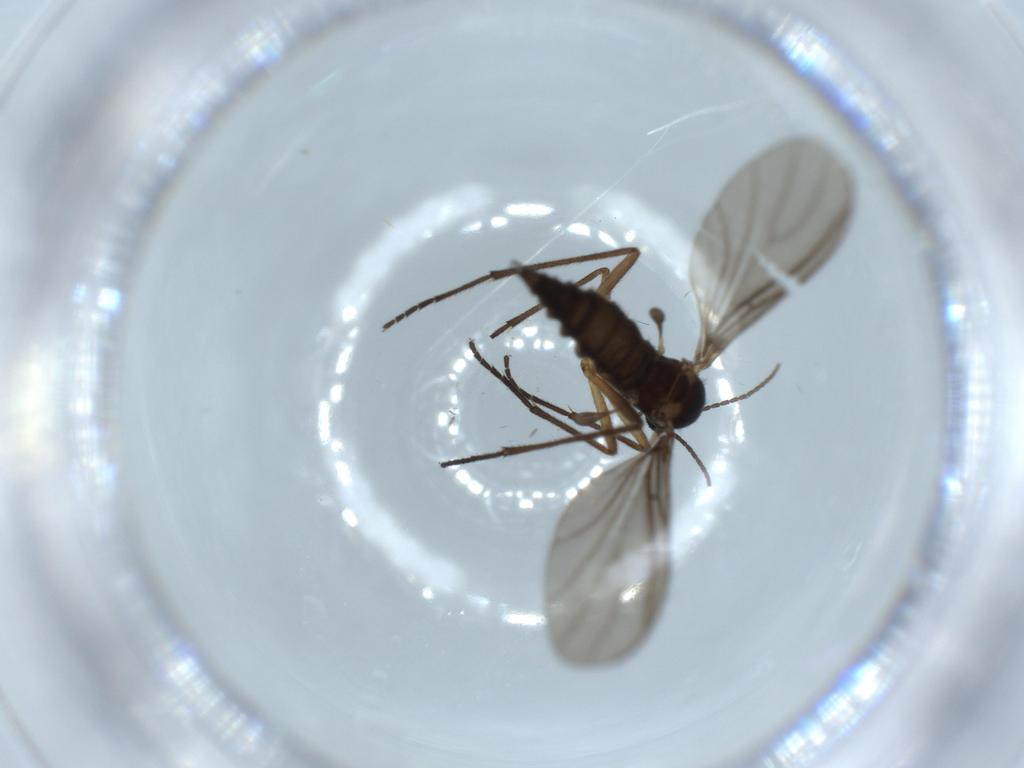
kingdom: Animalia
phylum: Arthropoda
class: Insecta
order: Diptera
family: Sciaridae
